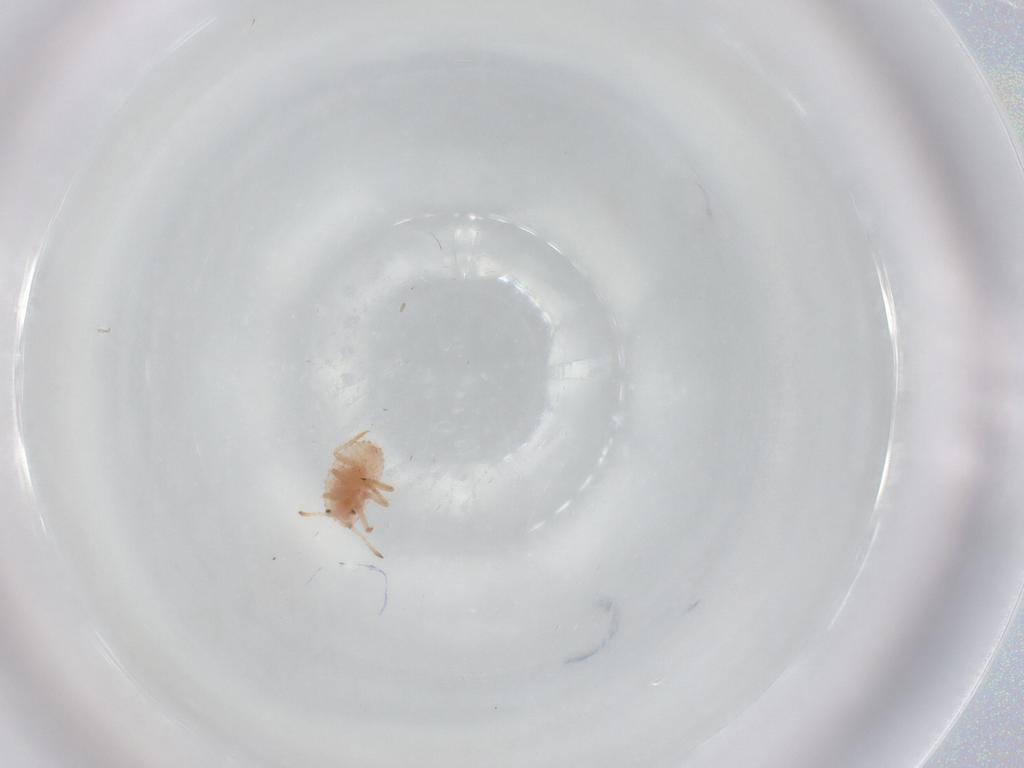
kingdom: Animalia
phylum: Arthropoda
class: Insecta
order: Hemiptera
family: Coccoidea_incertae_sedis
